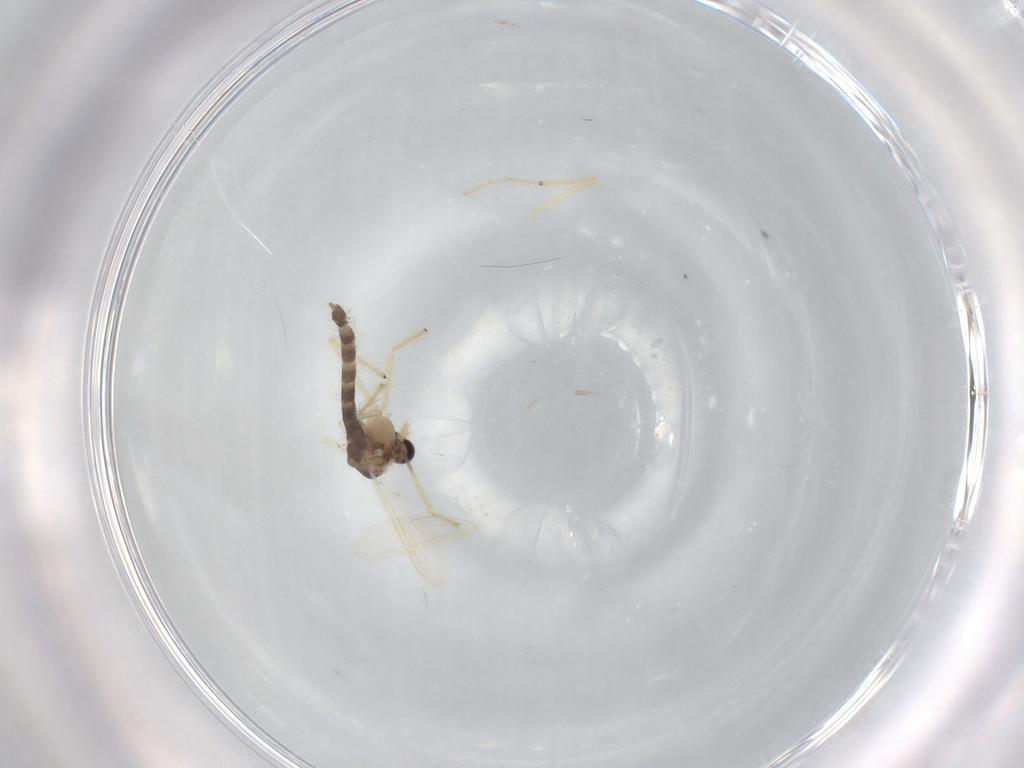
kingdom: Animalia
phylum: Arthropoda
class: Insecta
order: Diptera
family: Chironomidae
